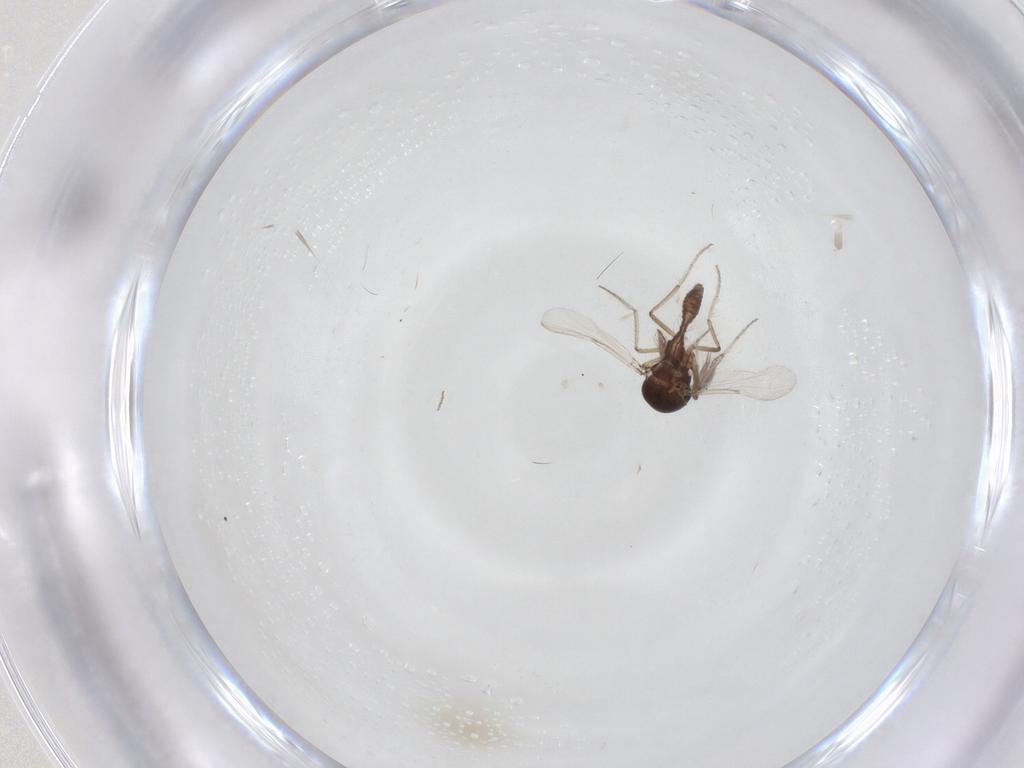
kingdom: Animalia
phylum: Arthropoda
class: Insecta
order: Diptera
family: Ceratopogonidae
